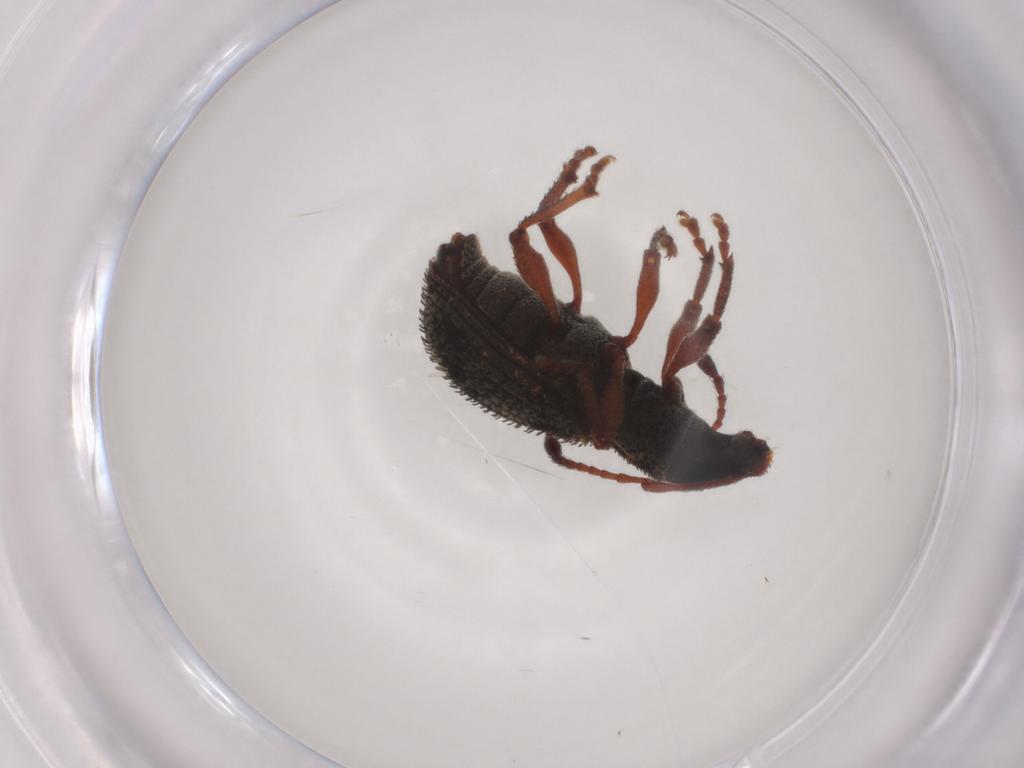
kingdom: Animalia
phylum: Arthropoda
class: Insecta
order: Coleoptera
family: Curculionidae
